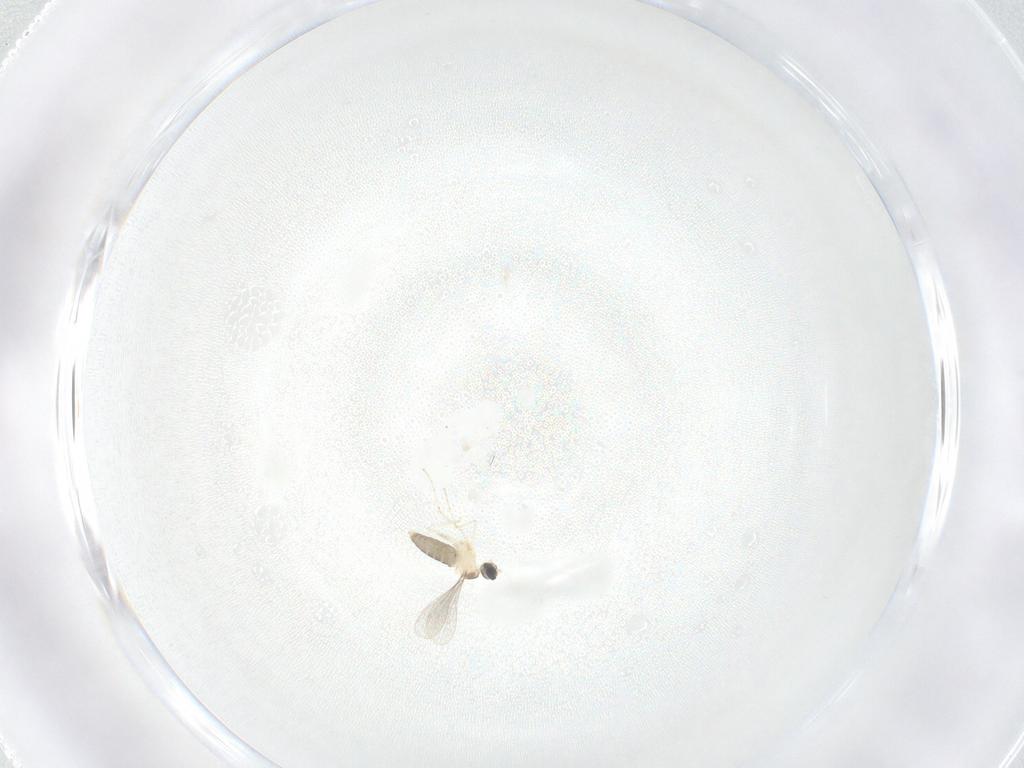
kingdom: Animalia
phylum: Arthropoda
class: Insecta
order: Diptera
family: Cecidomyiidae
